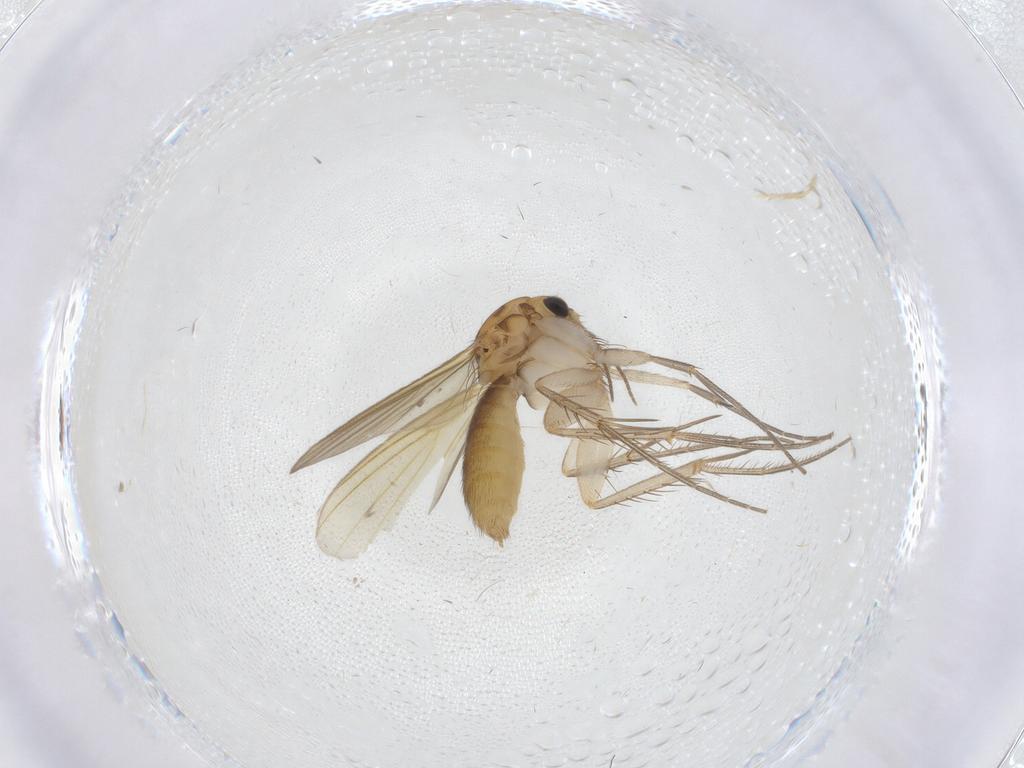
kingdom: Animalia
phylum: Arthropoda
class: Insecta
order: Diptera
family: Mycetophilidae
